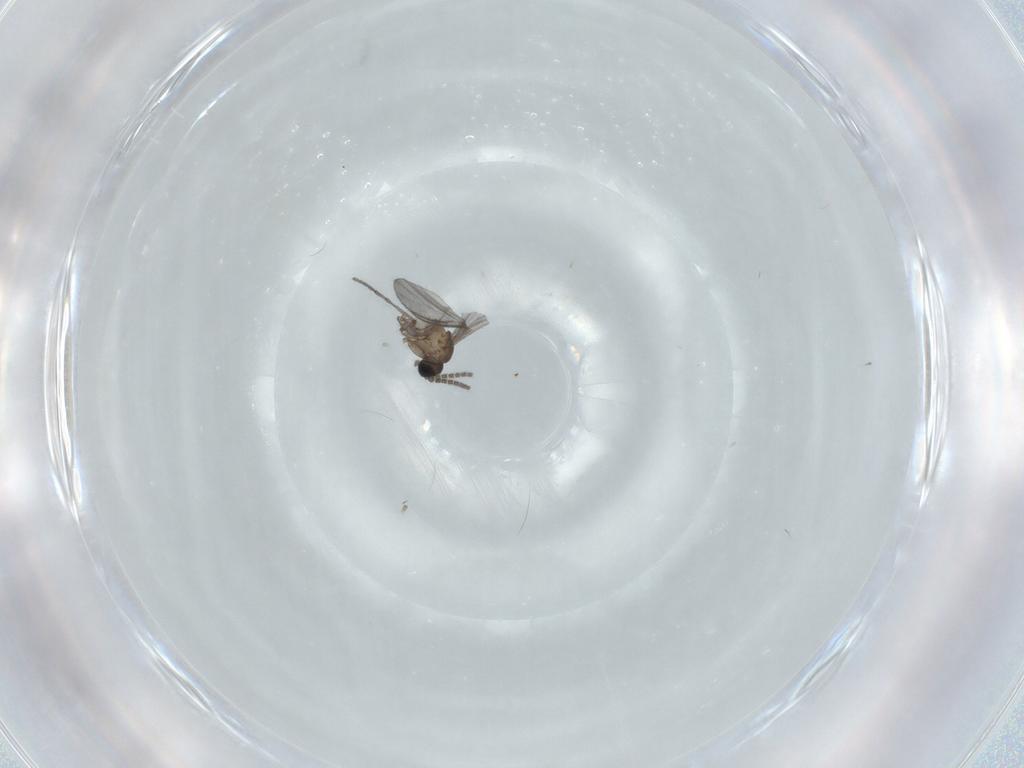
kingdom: Animalia
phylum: Arthropoda
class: Insecta
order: Diptera
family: Sciaridae
